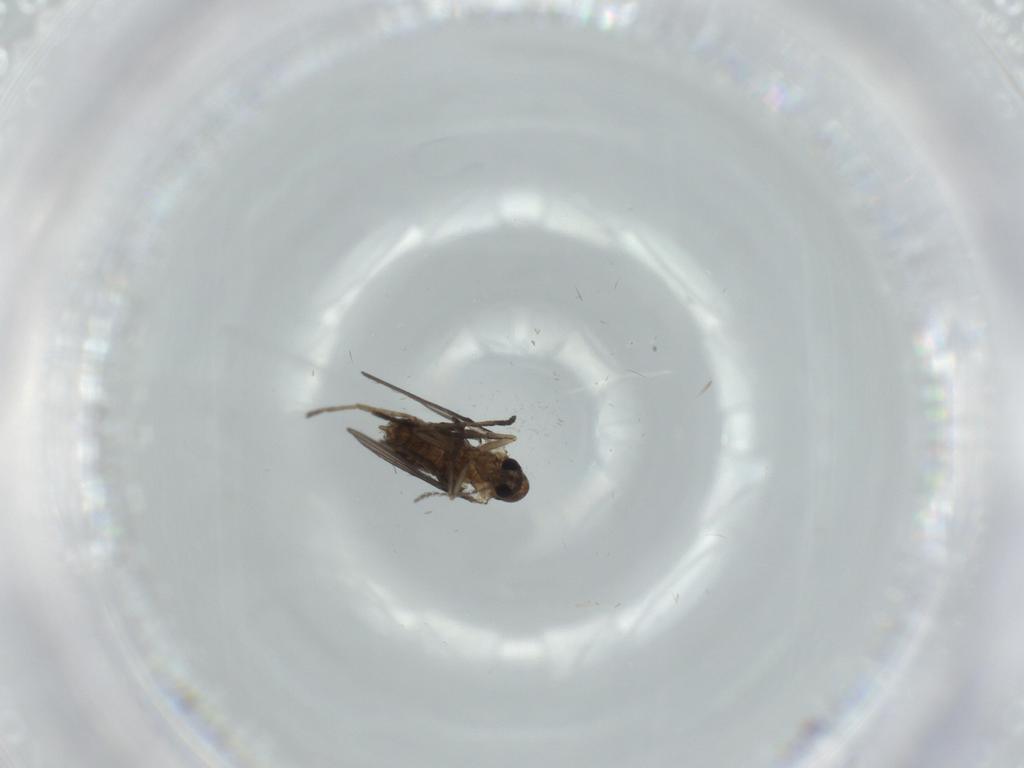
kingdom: Animalia
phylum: Arthropoda
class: Insecta
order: Diptera
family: Psychodidae
